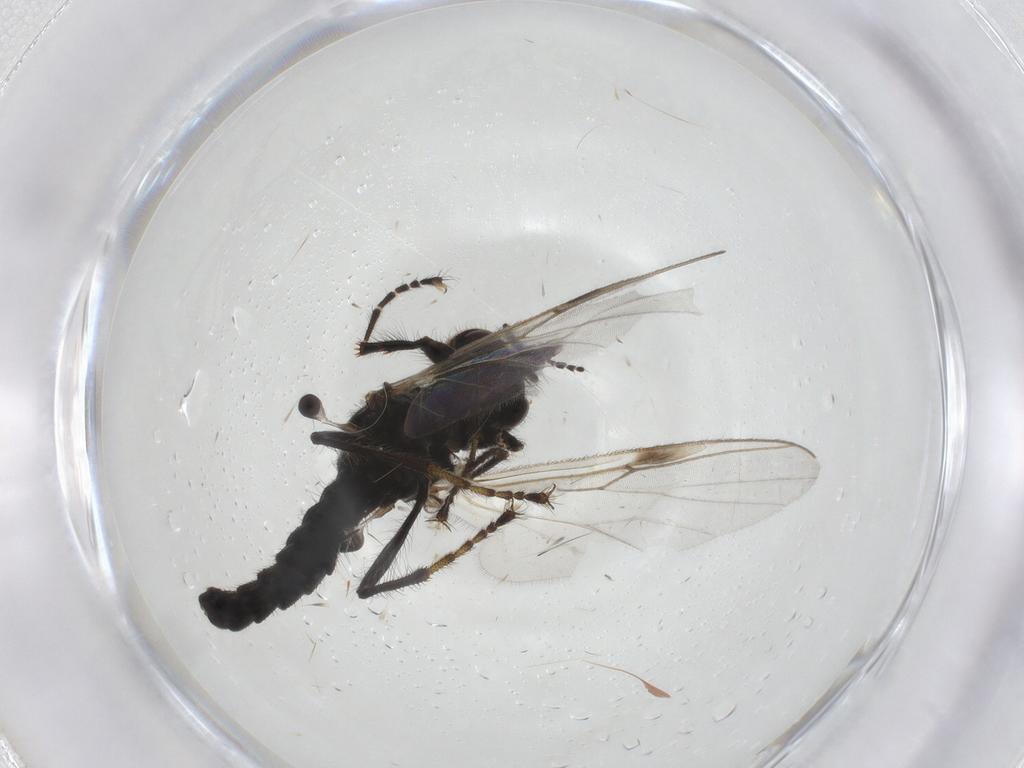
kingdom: Animalia
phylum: Arthropoda
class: Insecta
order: Diptera
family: Bibionidae
